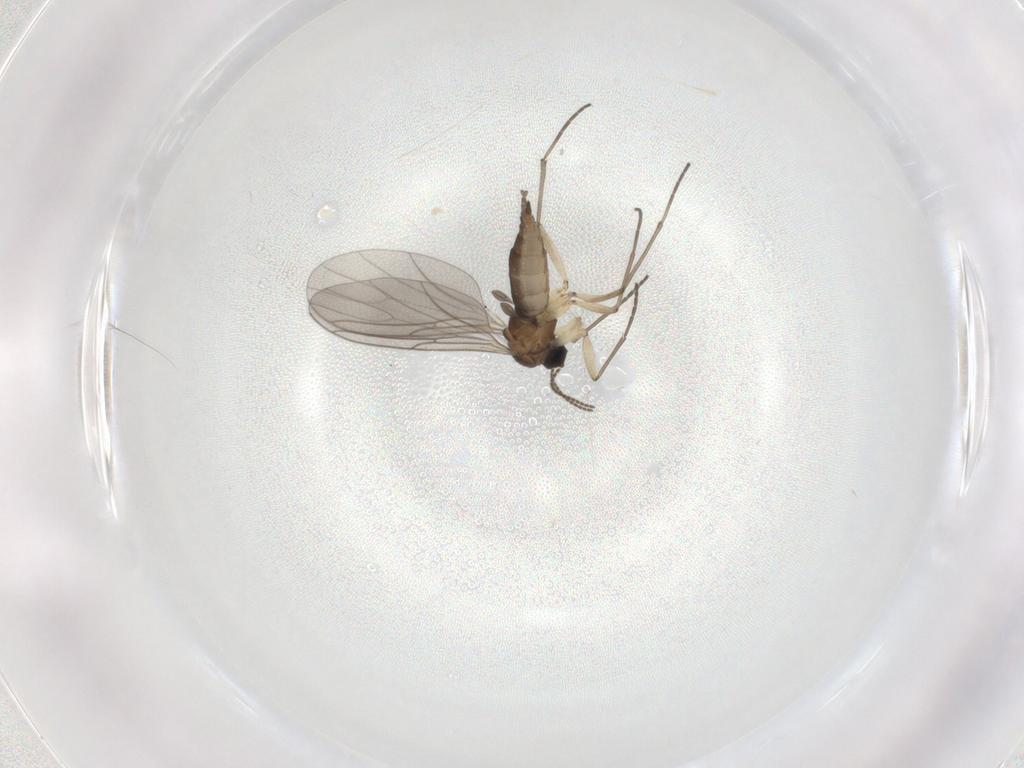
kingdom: Animalia
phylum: Arthropoda
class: Insecta
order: Diptera
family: Sciaridae
